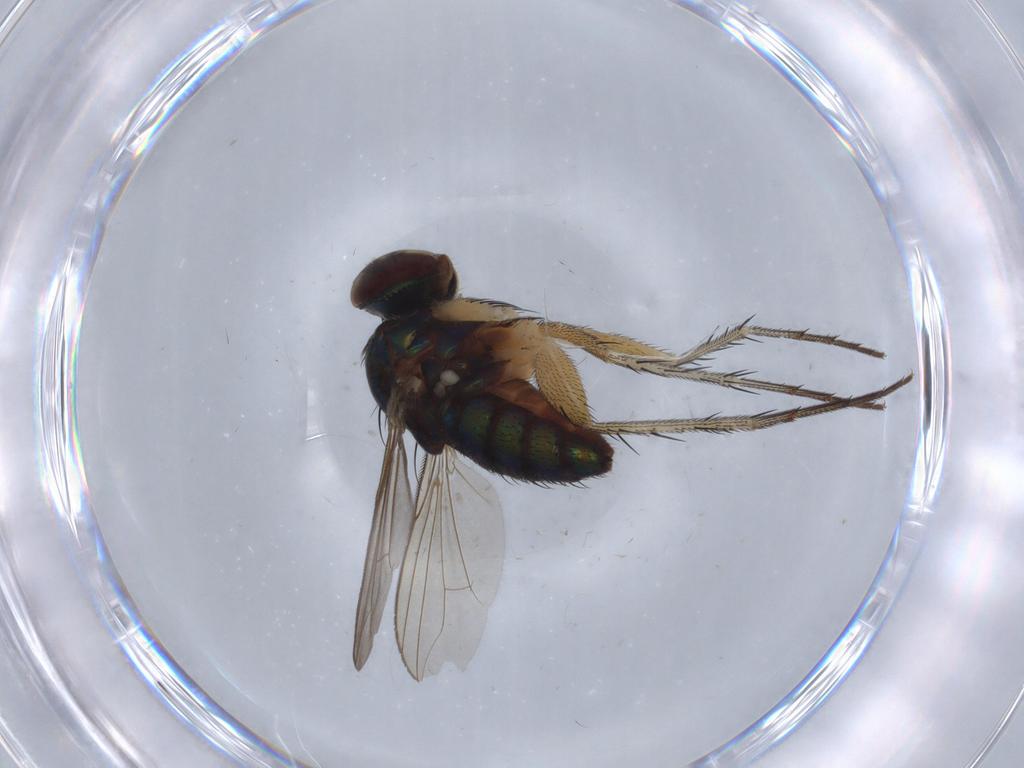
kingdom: Animalia
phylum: Arthropoda
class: Insecta
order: Diptera
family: Dolichopodidae
